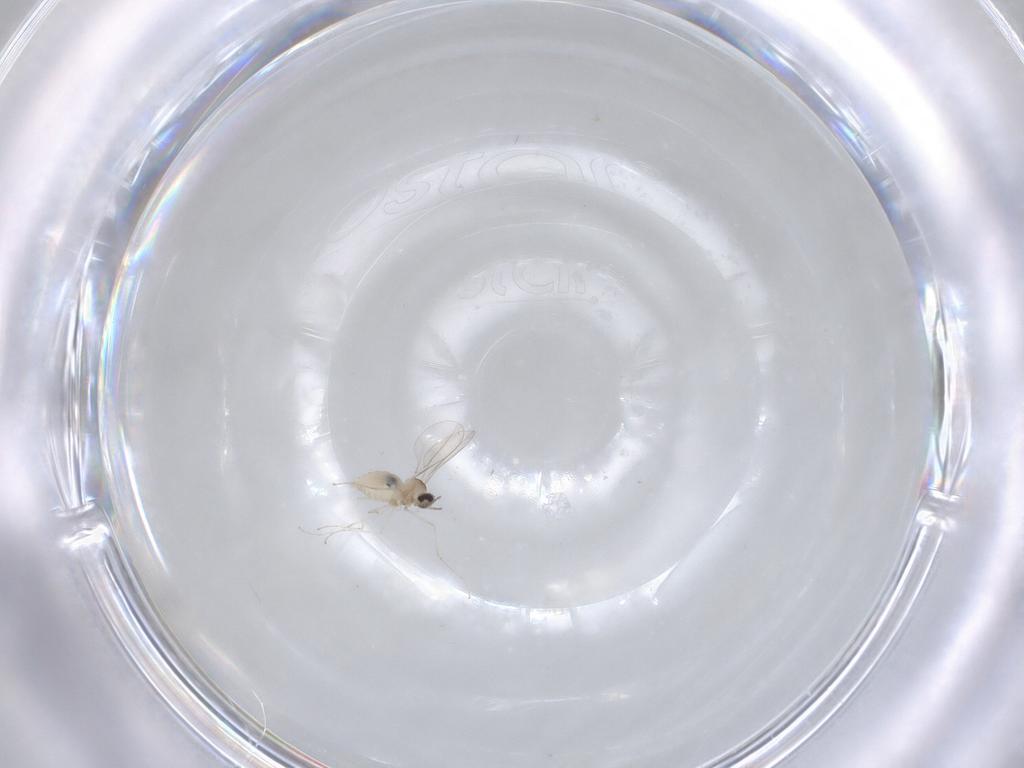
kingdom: Animalia
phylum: Arthropoda
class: Insecta
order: Diptera
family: Cecidomyiidae
